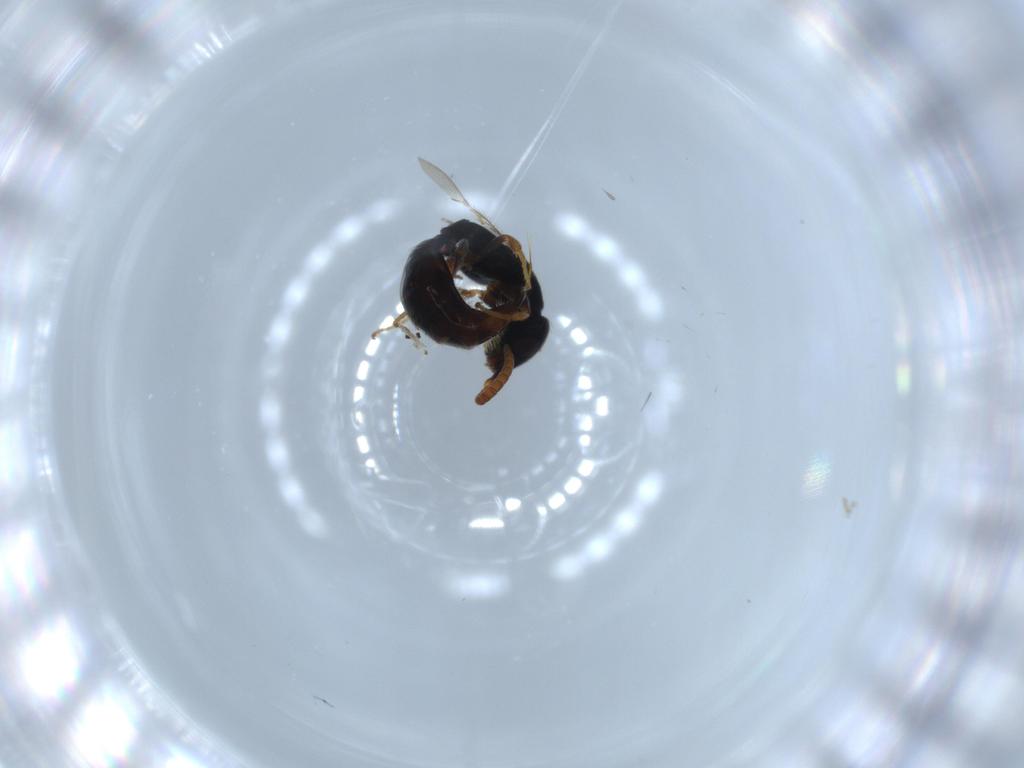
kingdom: Animalia
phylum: Arthropoda
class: Insecta
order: Hymenoptera
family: Bethylidae
